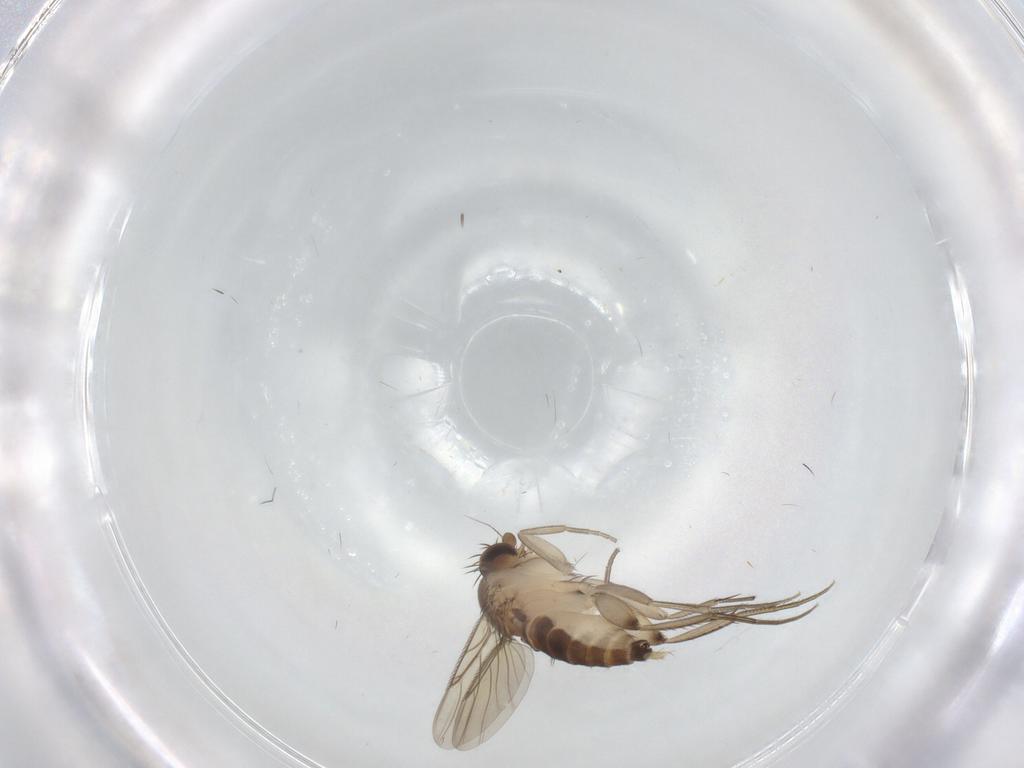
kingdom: Animalia
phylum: Arthropoda
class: Insecta
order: Diptera
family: Phoridae
